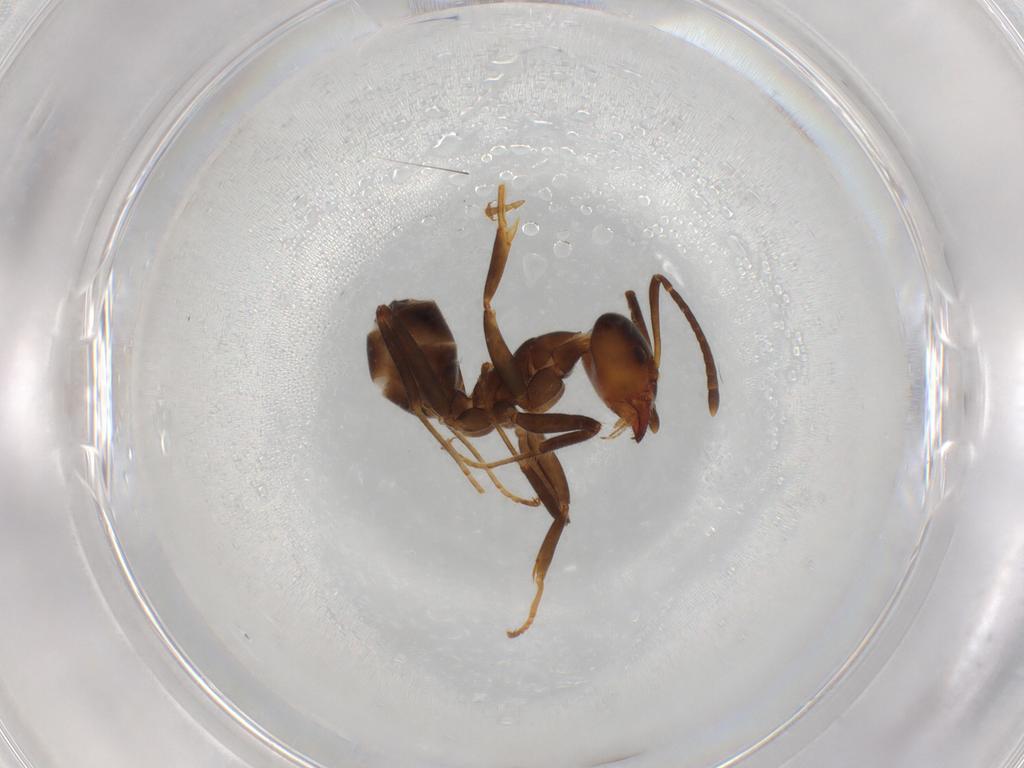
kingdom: Animalia
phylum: Arthropoda
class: Insecta
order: Hymenoptera
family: Formicidae
